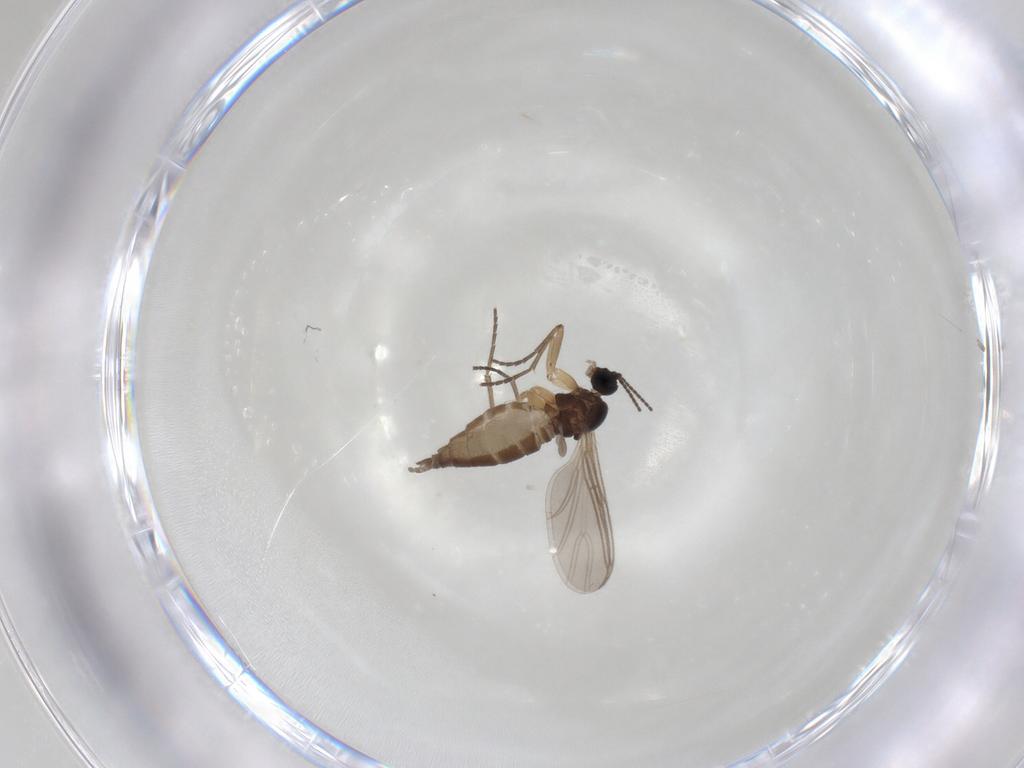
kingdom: Animalia
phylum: Arthropoda
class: Insecta
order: Diptera
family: Sciaridae
